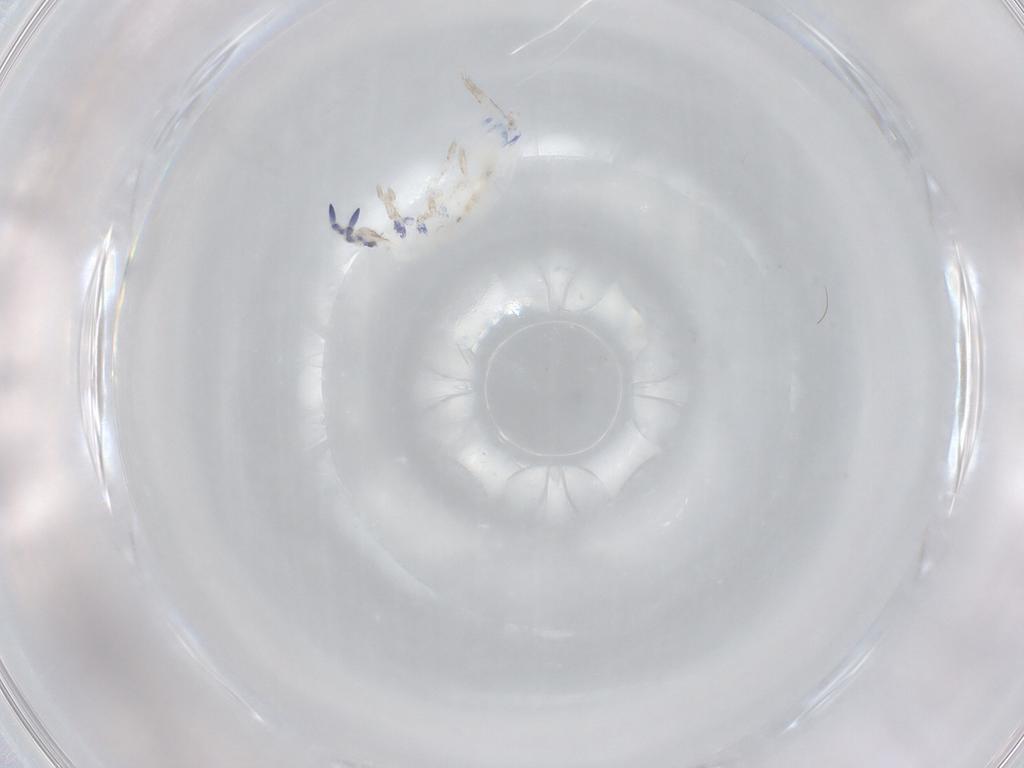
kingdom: Animalia
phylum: Arthropoda
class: Collembola
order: Entomobryomorpha
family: Entomobryidae
